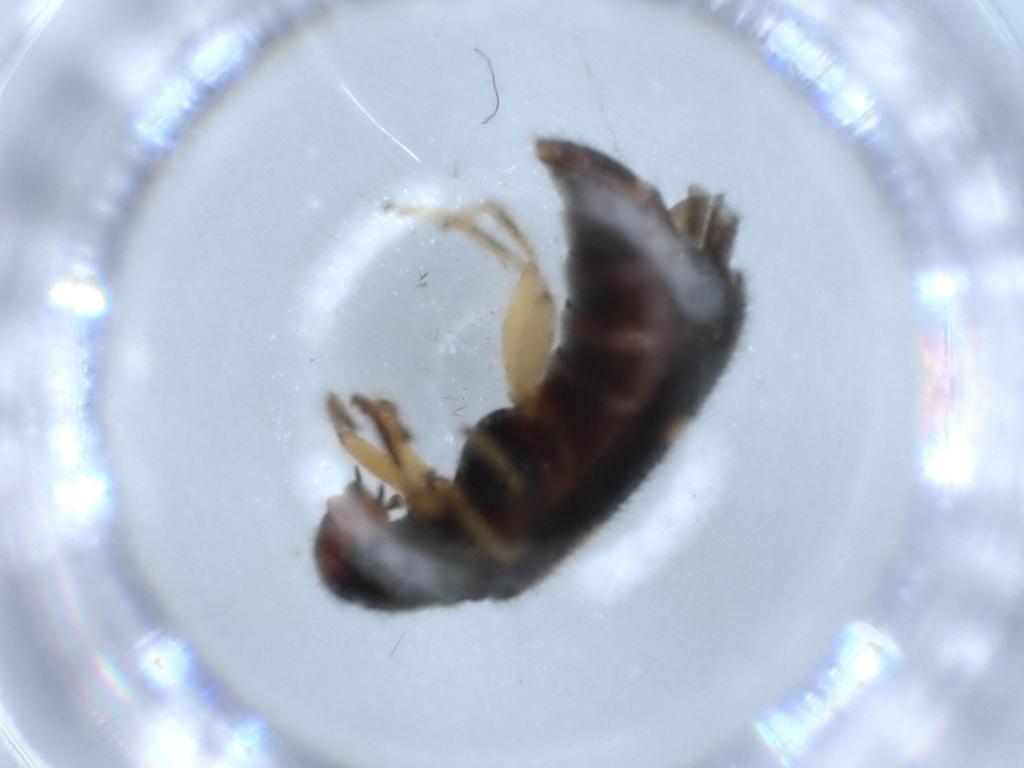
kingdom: Animalia
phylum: Arthropoda
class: Insecta
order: Coleoptera
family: Cleridae
